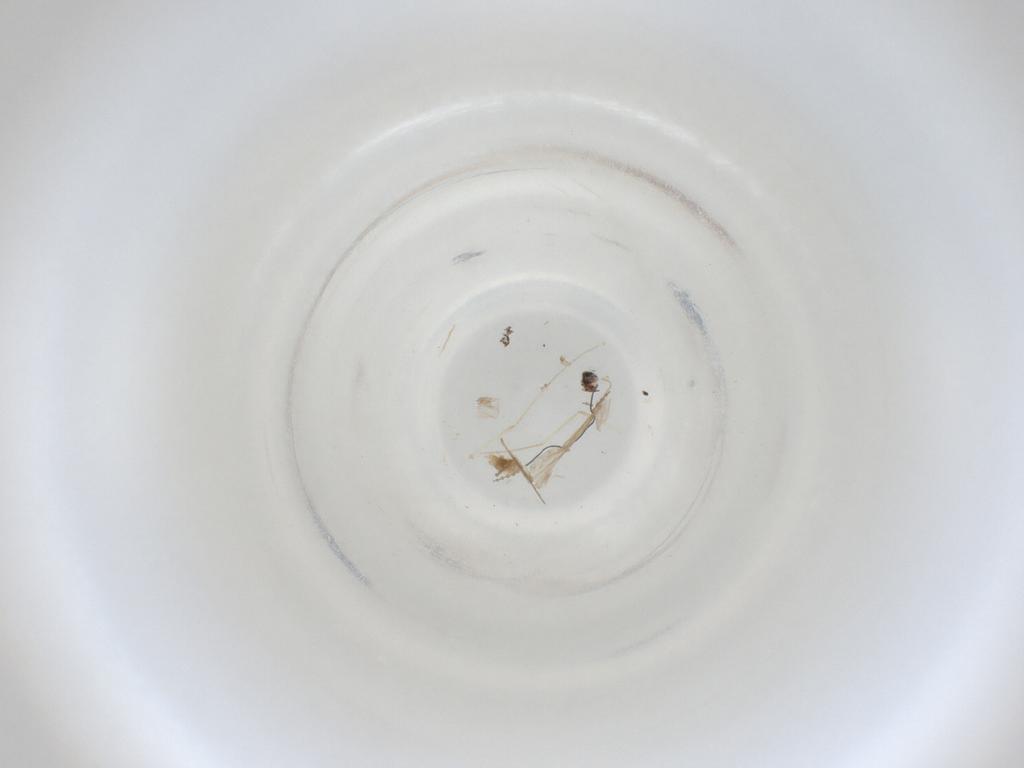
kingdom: Animalia
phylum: Arthropoda
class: Insecta
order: Diptera
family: Cecidomyiidae
